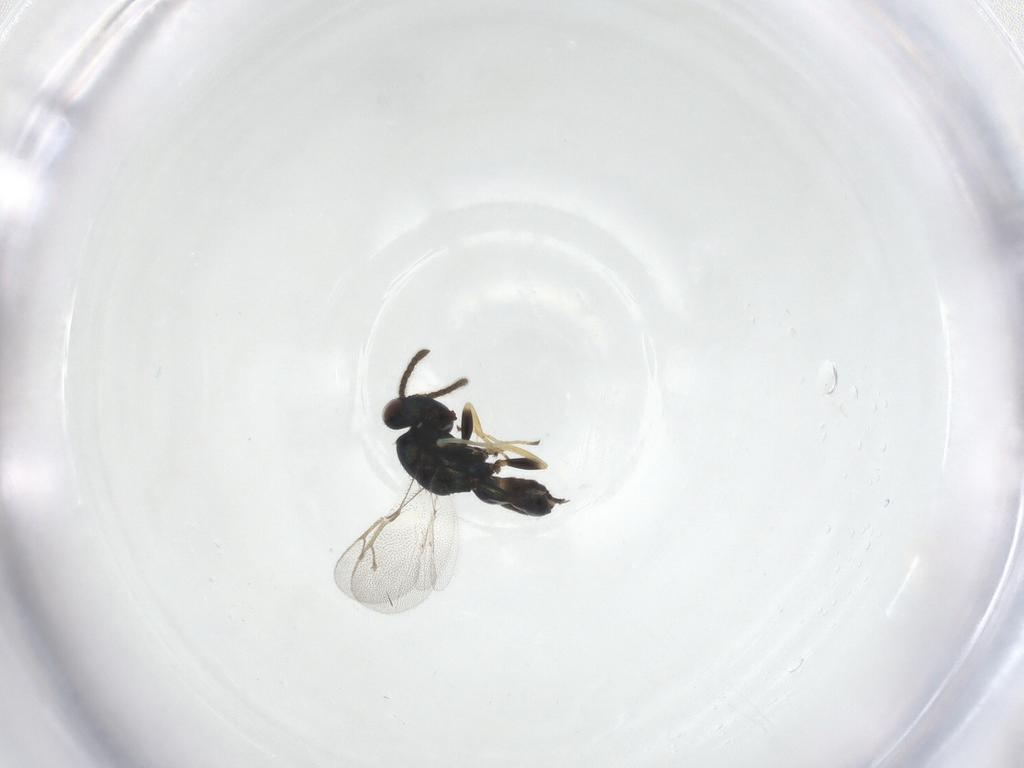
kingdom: Animalia
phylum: Arthropoda
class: Insecta
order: Hymenoptera
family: Pteromalidae
